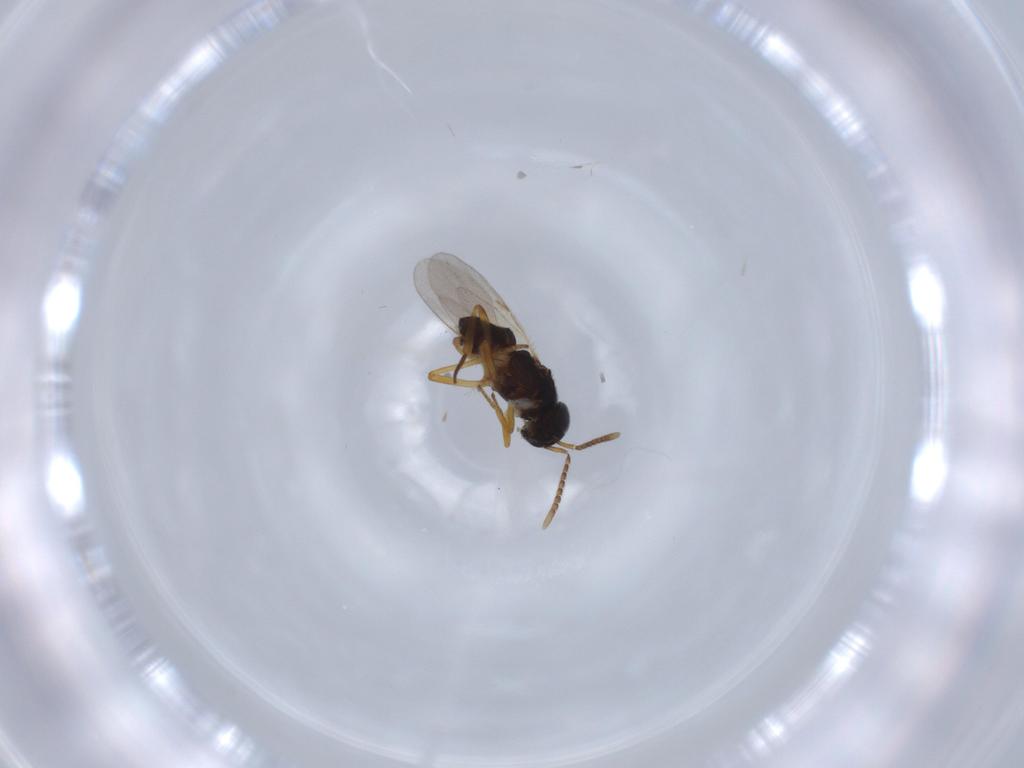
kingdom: Animalia
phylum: Arthropoda
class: Insecta
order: Hymenoptera
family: Encyrtidae
